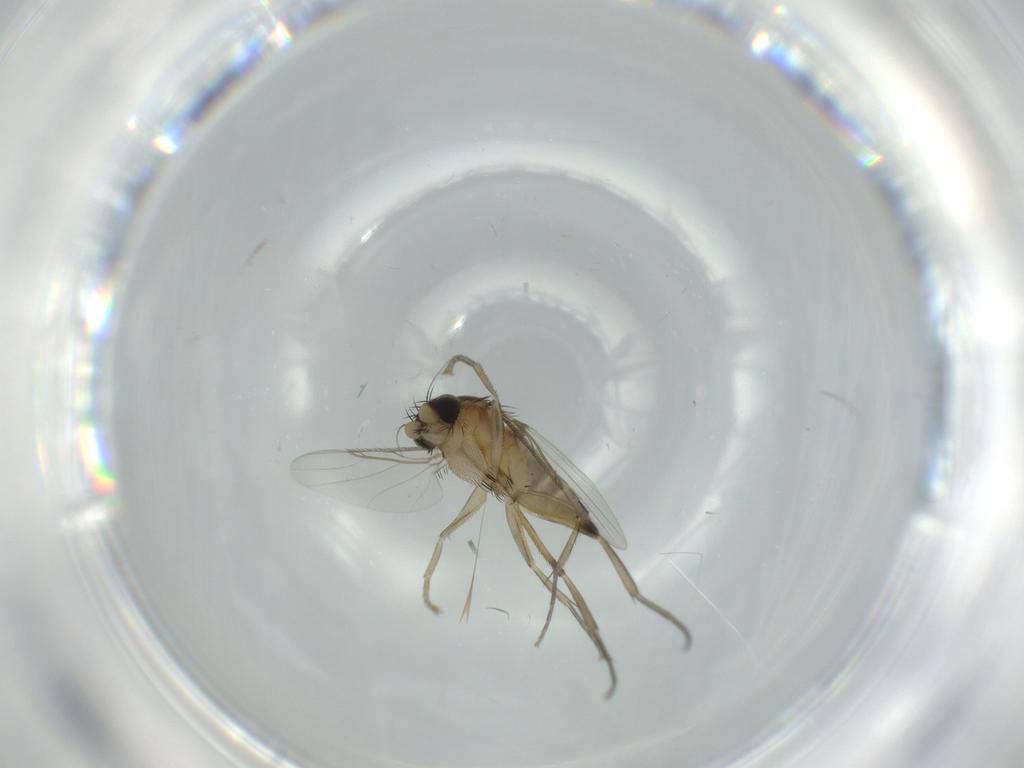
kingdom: Animalia
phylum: Arthropoda
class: Insecta
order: Diptera
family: Phoridae
